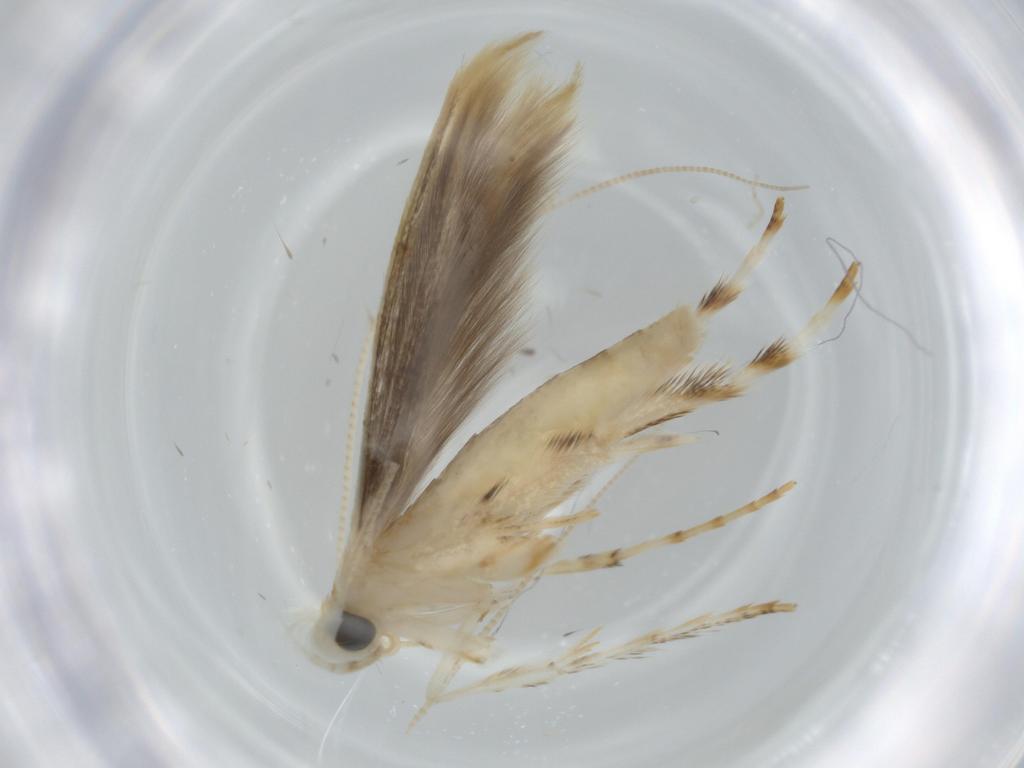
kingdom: Animalia
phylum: Arthropoda
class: Insecta
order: Lepidoptera
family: Gracillariidae
